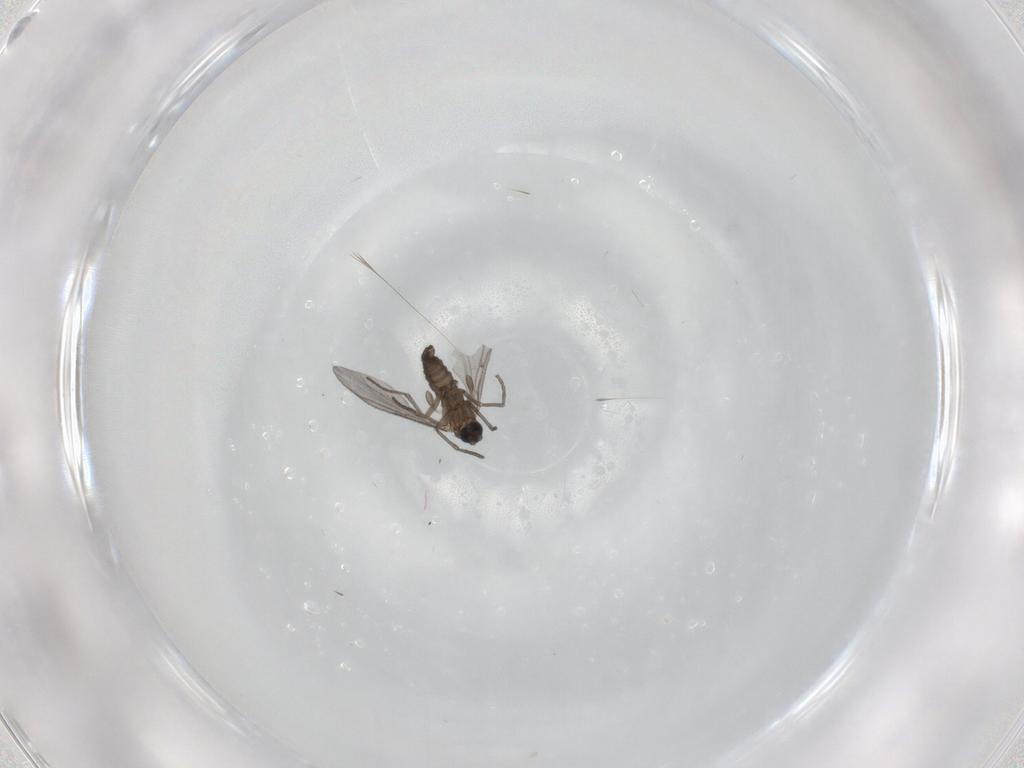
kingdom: Animalia
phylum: Arthropoda
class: Insecta
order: Diptera
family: Sciaridae
